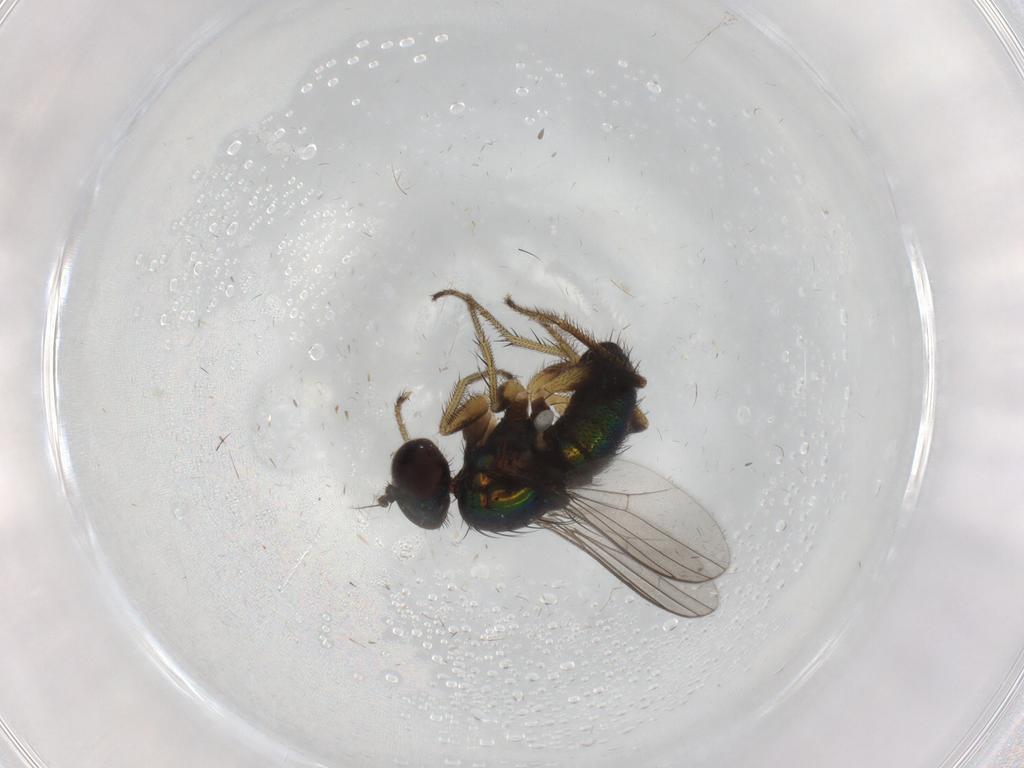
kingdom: Animalia
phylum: Arthropoda
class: Insecta
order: Diptera
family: Dolichopodidae
